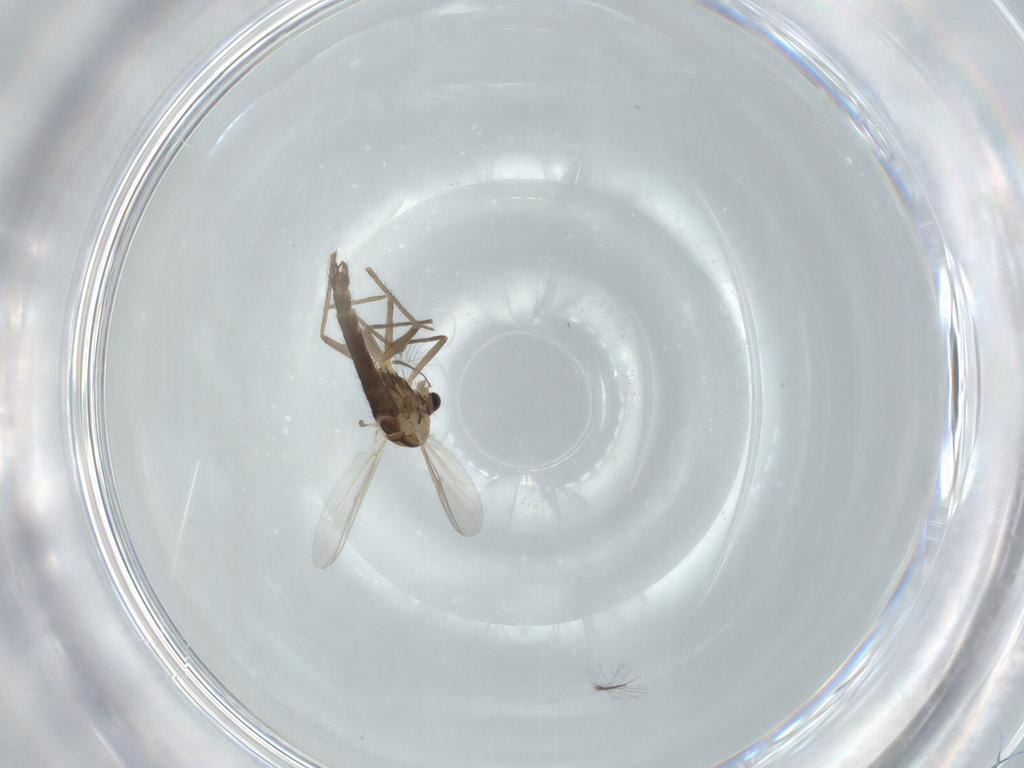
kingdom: Animalia
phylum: Arthropoda
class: Insecta
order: Diptera
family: Chironomidae
